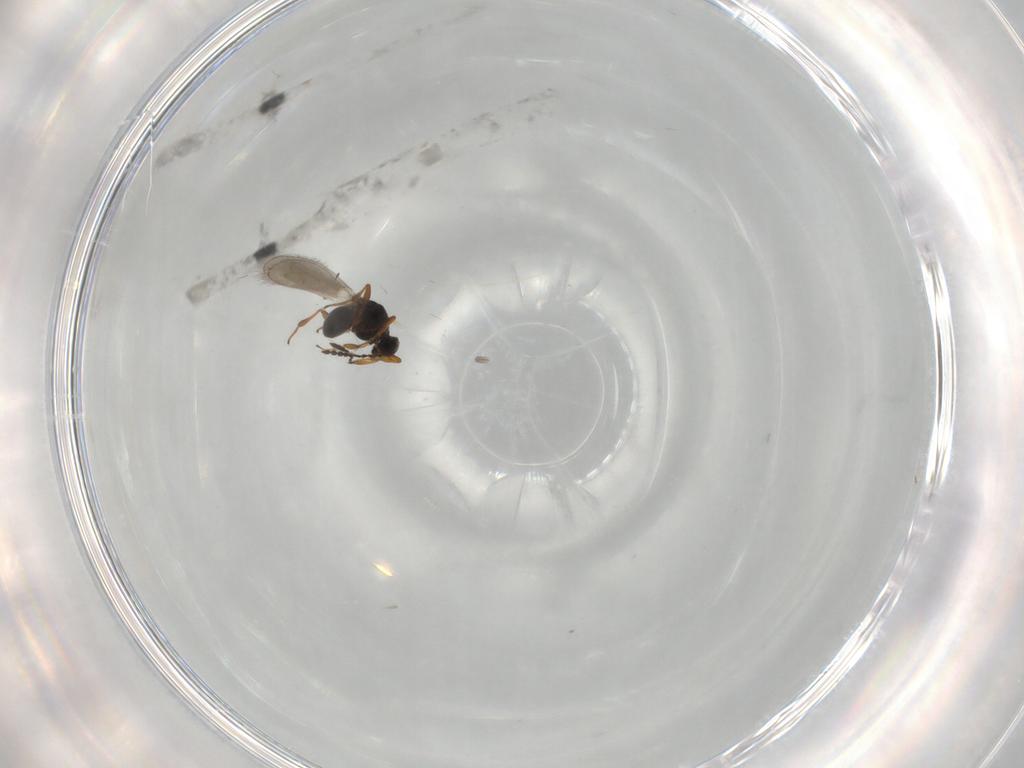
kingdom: Animalia
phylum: Arthropoda
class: Insecta
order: Hymenoptera
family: Platygastridae
